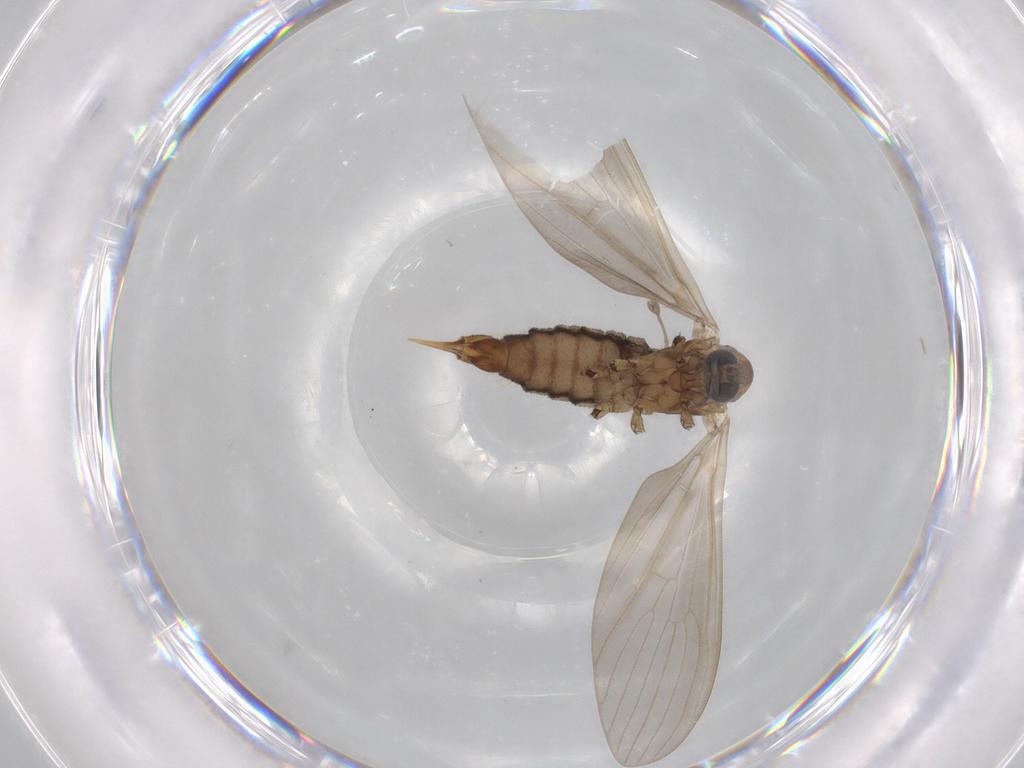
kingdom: Animalia
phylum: Arthropoda
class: Insecta
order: Diptera
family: Limoniidae
